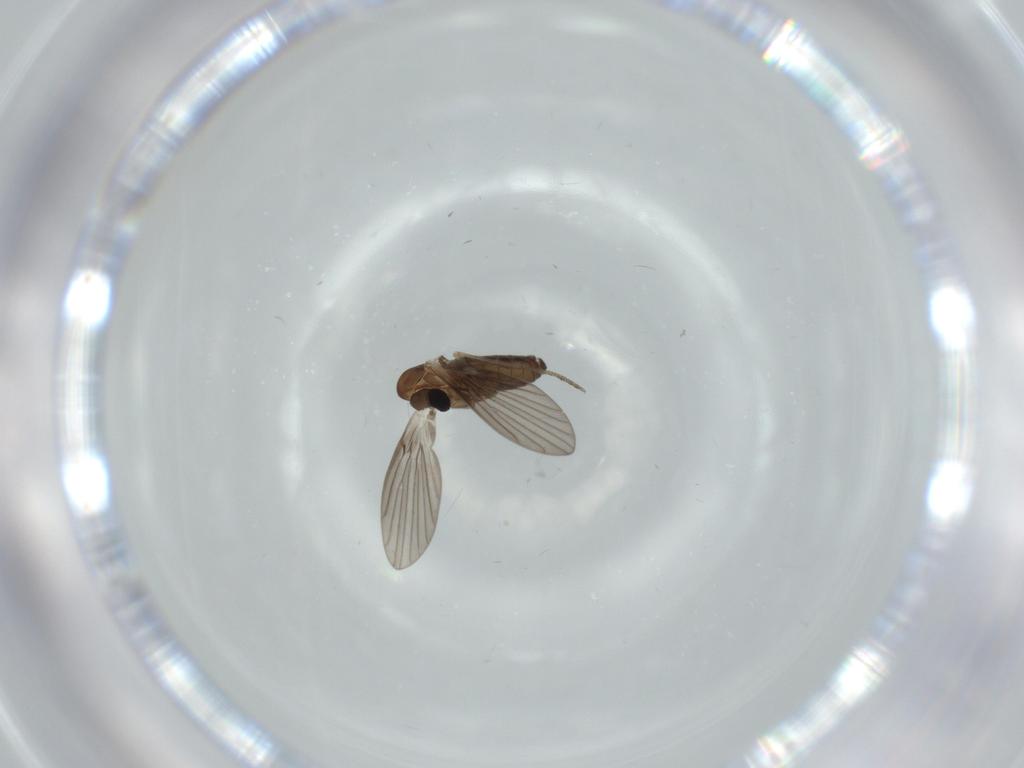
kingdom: Animalia
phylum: Arthropoda
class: Insecta
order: Diptera
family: Psychodidae
